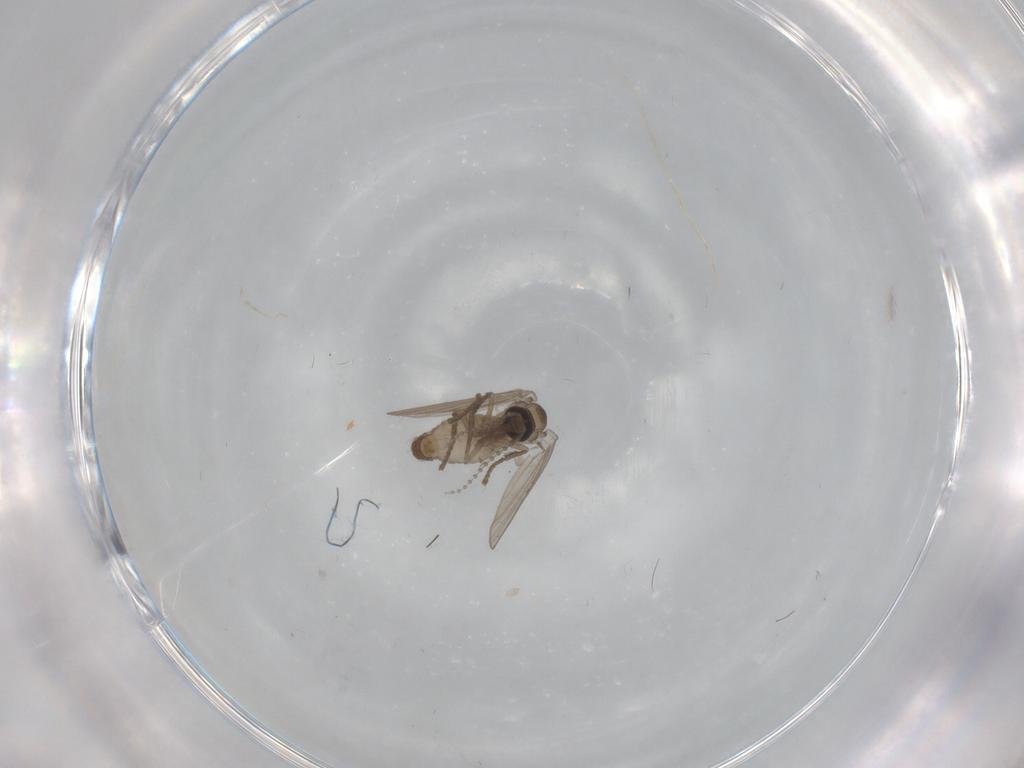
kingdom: Animalia
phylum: Arthropoda
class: Insecta
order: Diptera
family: Psychodidae
